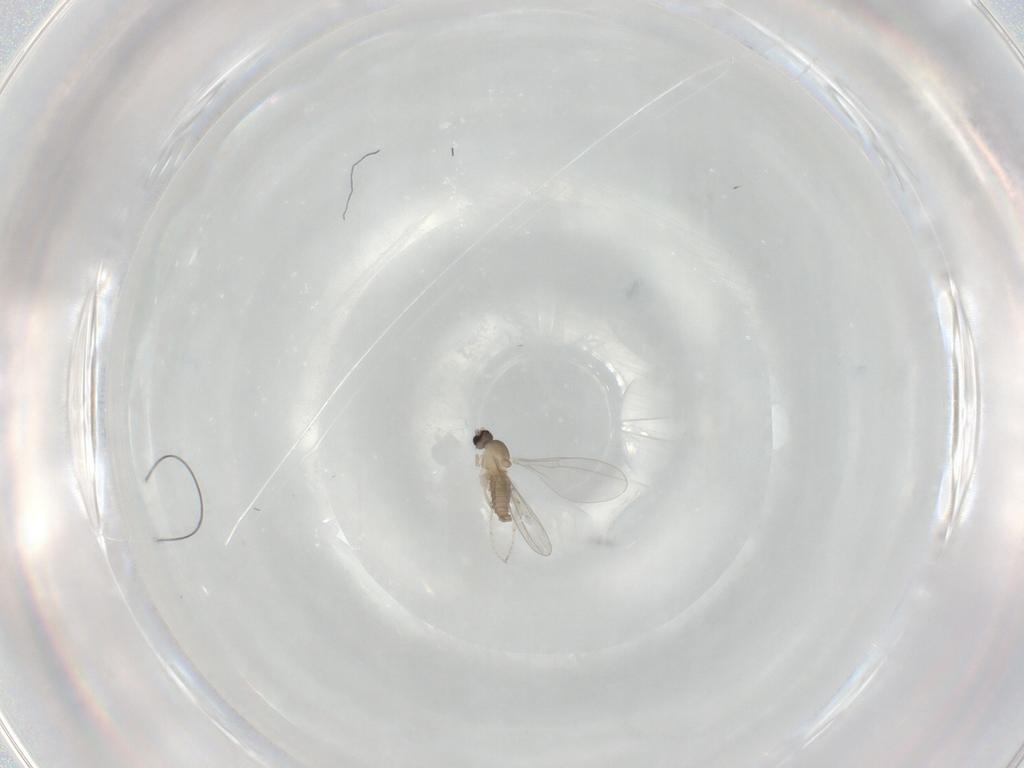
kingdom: Animalia
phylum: Arthropoda
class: Insecta
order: Diptera
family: Cecidomyiidae
